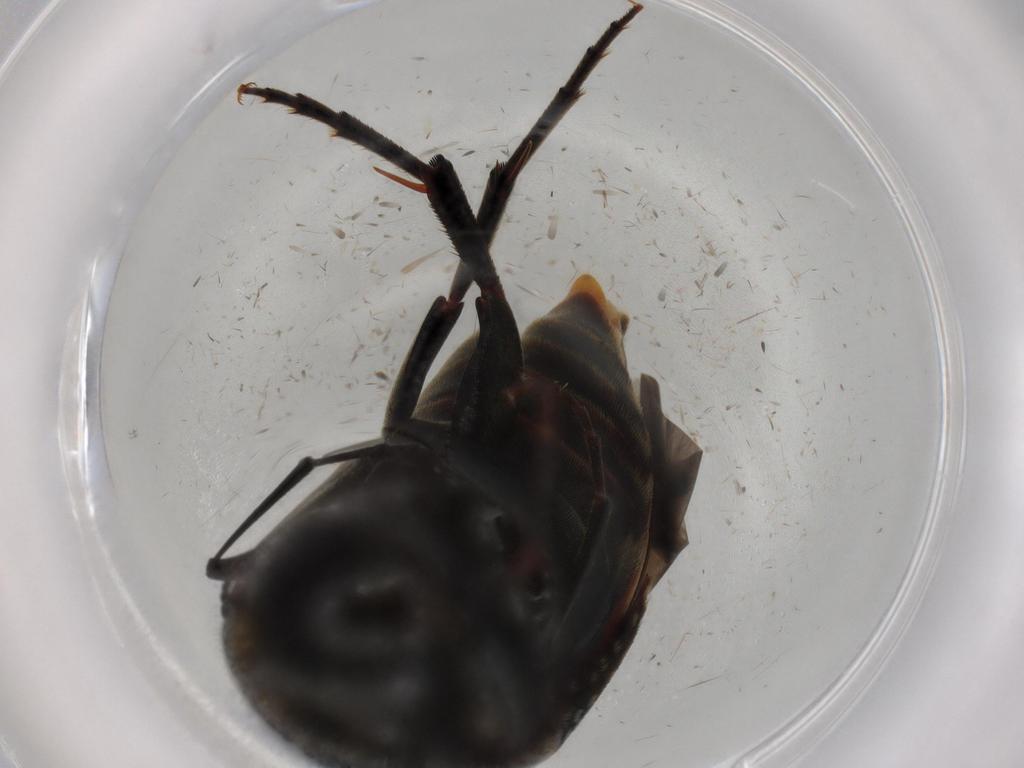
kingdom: Animalia
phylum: Arthropoda
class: Insecta
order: Coleoptera
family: Mordellidae
